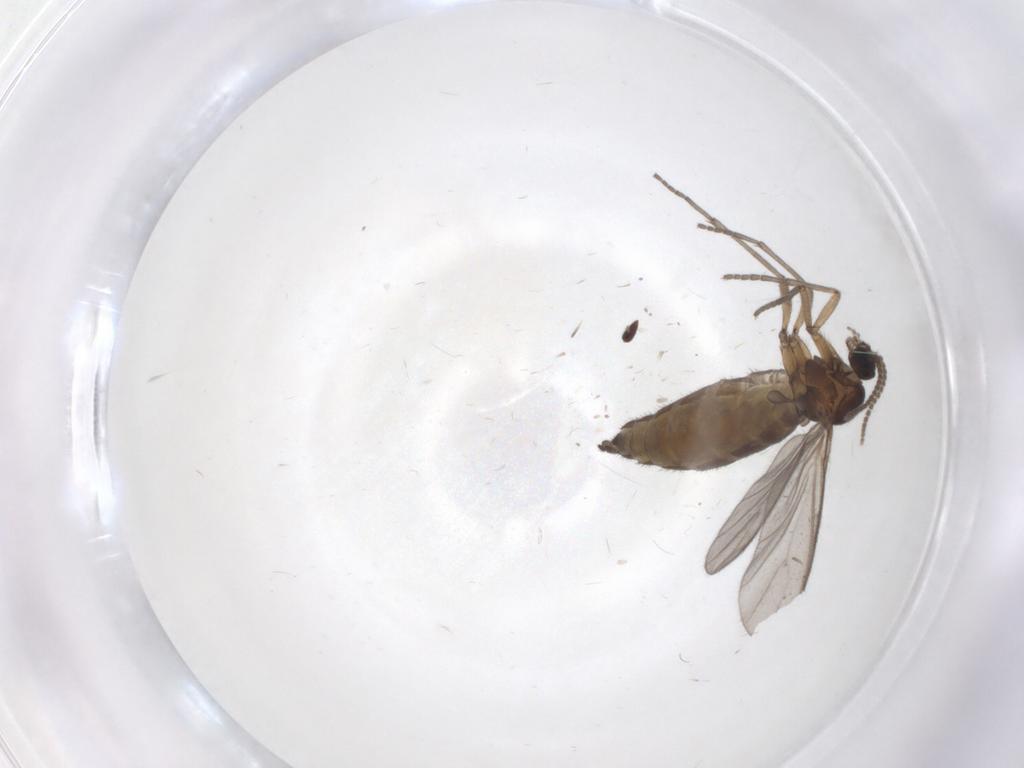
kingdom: Animalia
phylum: Arthropoda
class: Insecta
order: Diptera
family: Sciaridae
